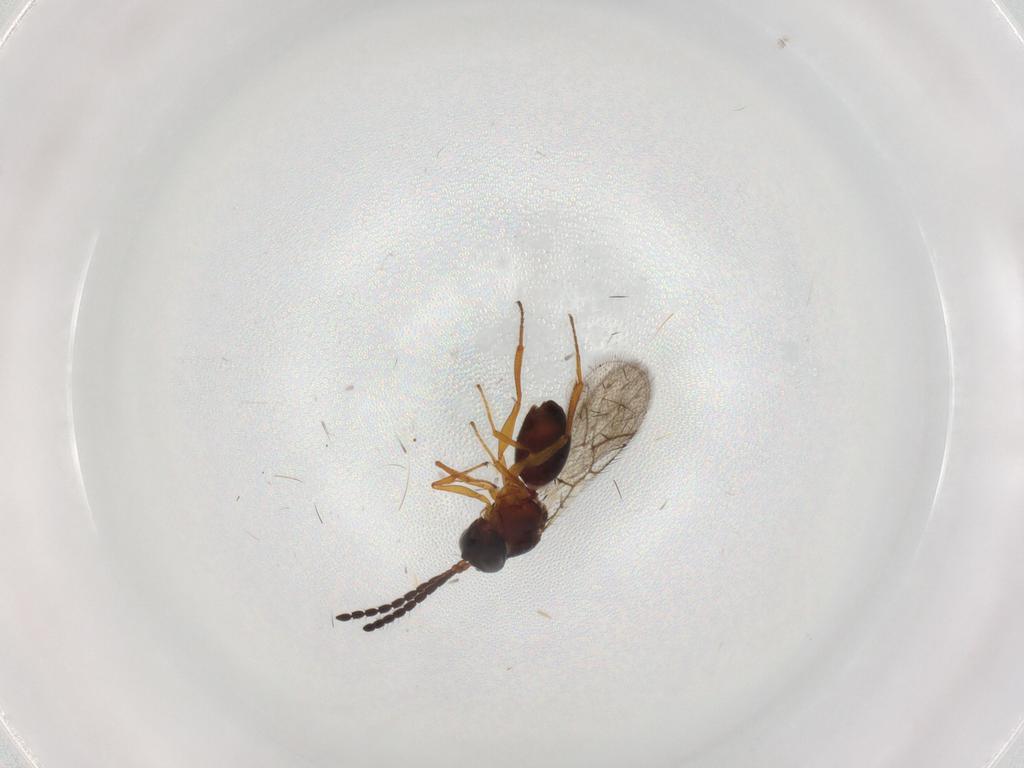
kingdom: Animalia
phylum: Arthropoda
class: Insecta
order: Hymenoptera
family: Figitidae
